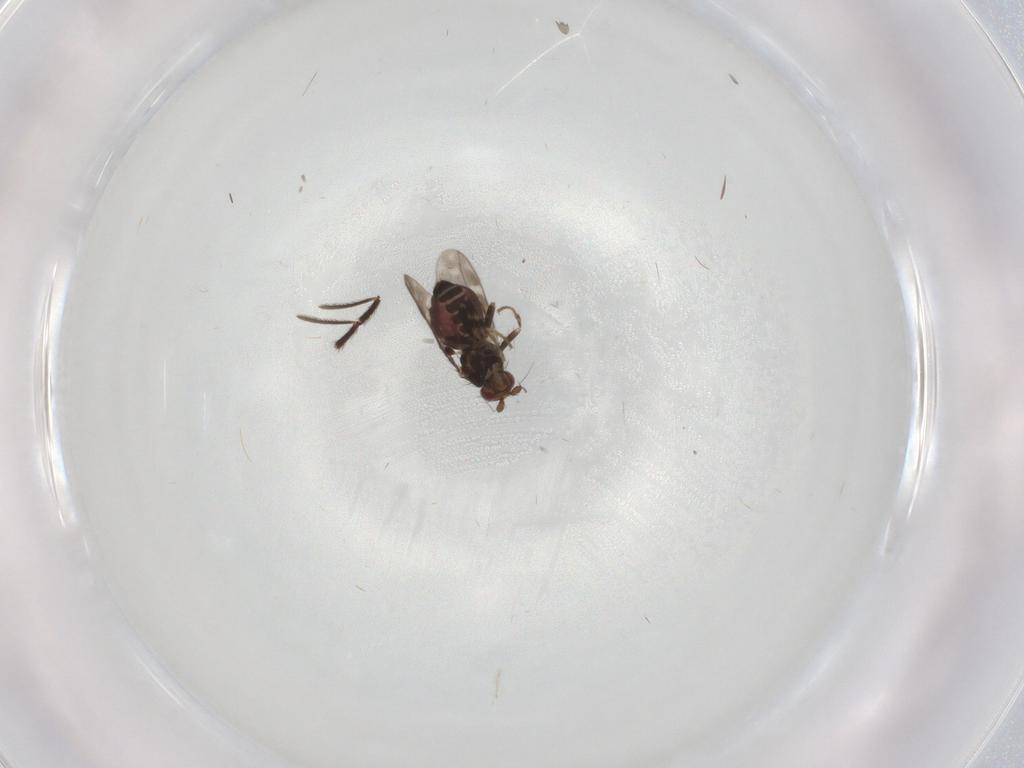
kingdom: Animalia
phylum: Arthropoda
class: Insecta
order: Diptera
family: Sphaeroceridae
